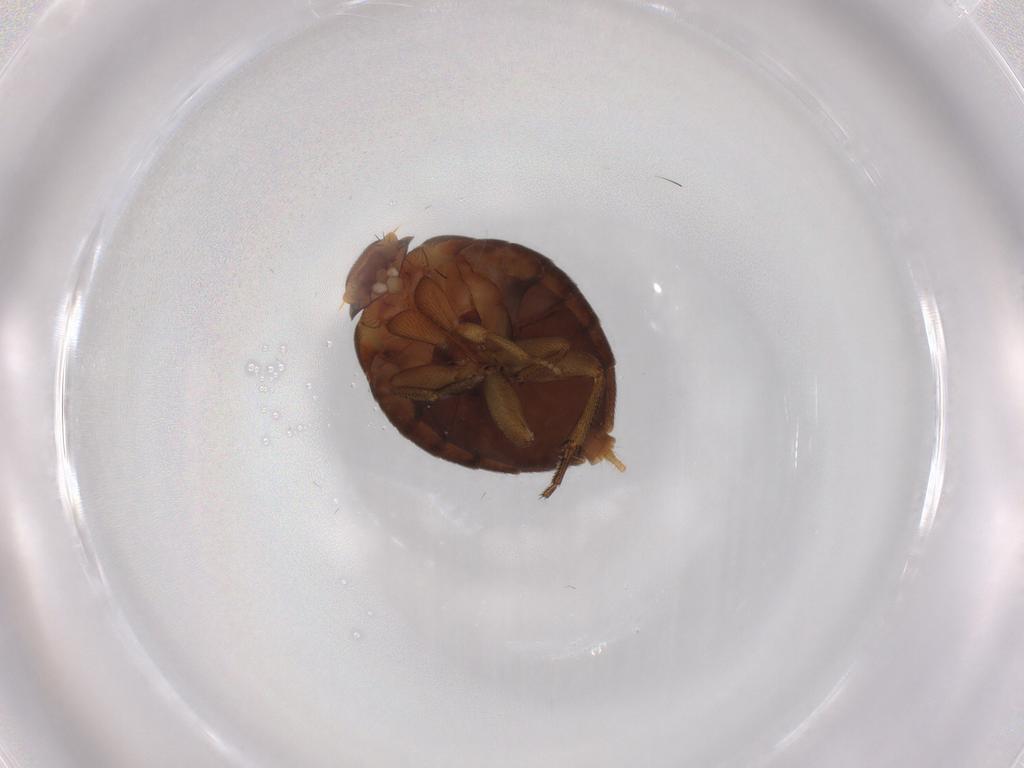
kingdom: Animalia
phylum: Arthropoda
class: Insecta
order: Diptera
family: Phoridae
